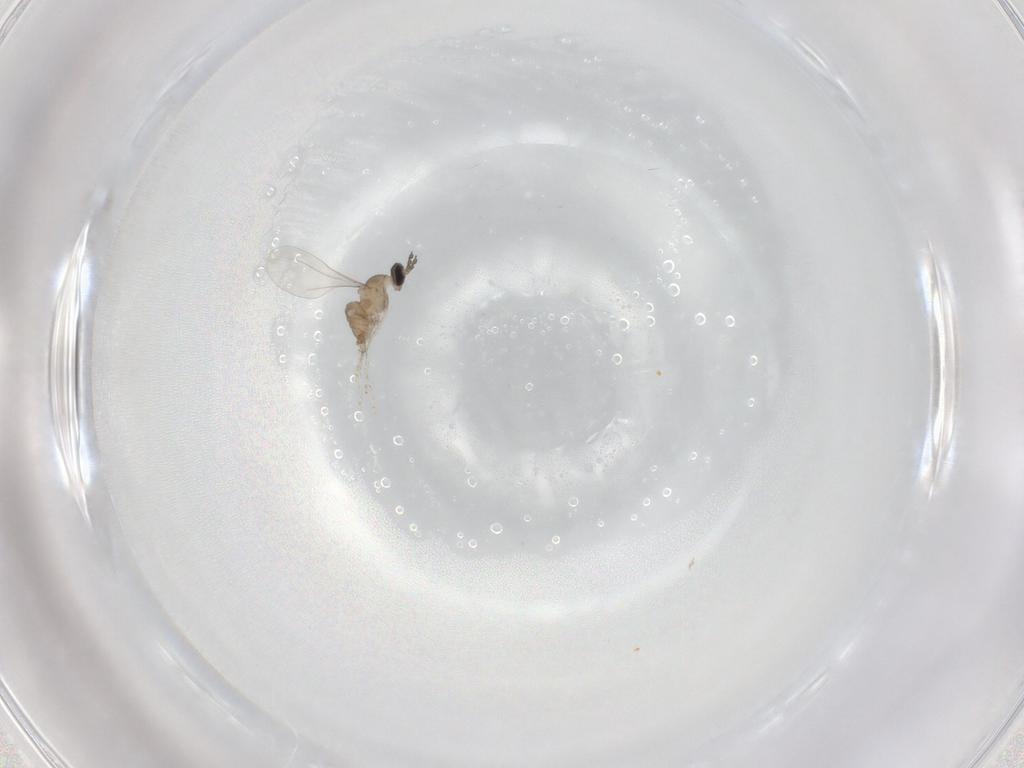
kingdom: Animalia
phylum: Arthropoda
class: Insecta
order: Diptera
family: Cecidomyiidae
